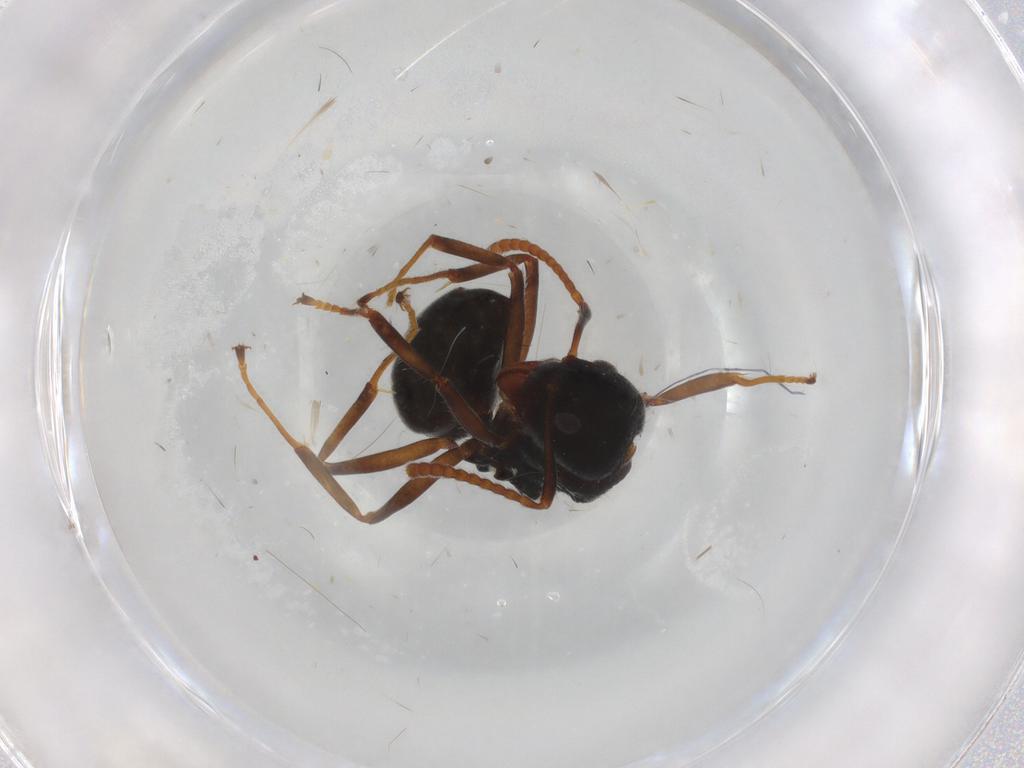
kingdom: Animalia
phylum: Arthropoda
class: Insecta
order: Hymenoptera
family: Formicidae
